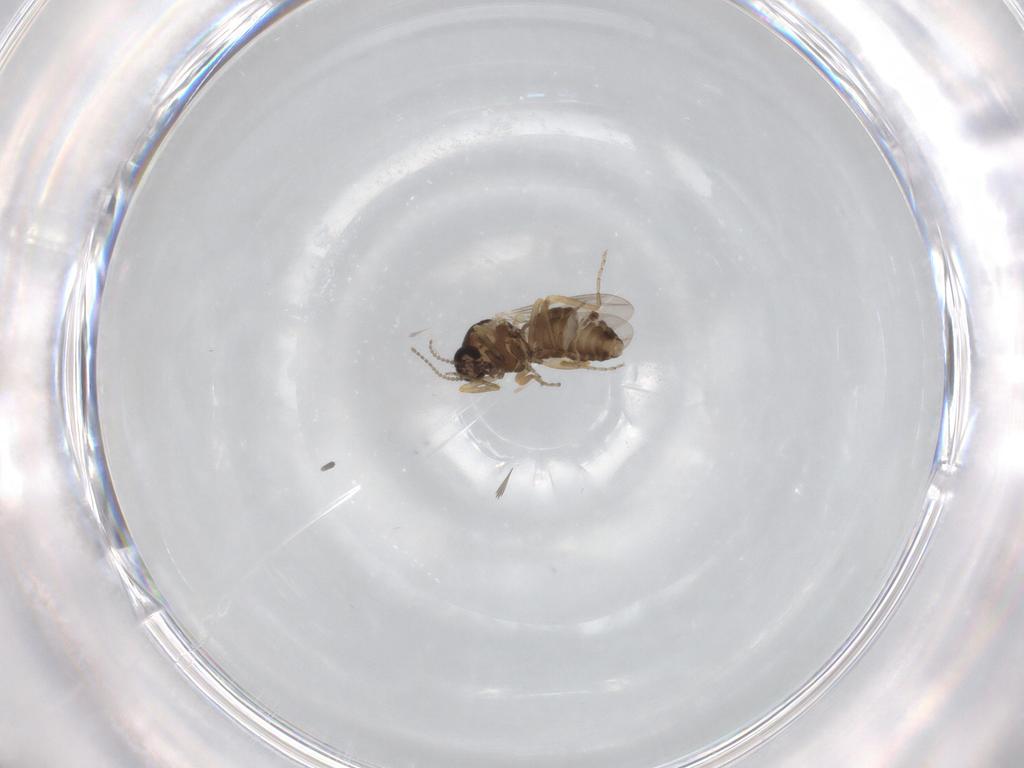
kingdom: Animalia
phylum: Arthropoda
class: Insecta
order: Diptera
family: Ceratopogonidae
